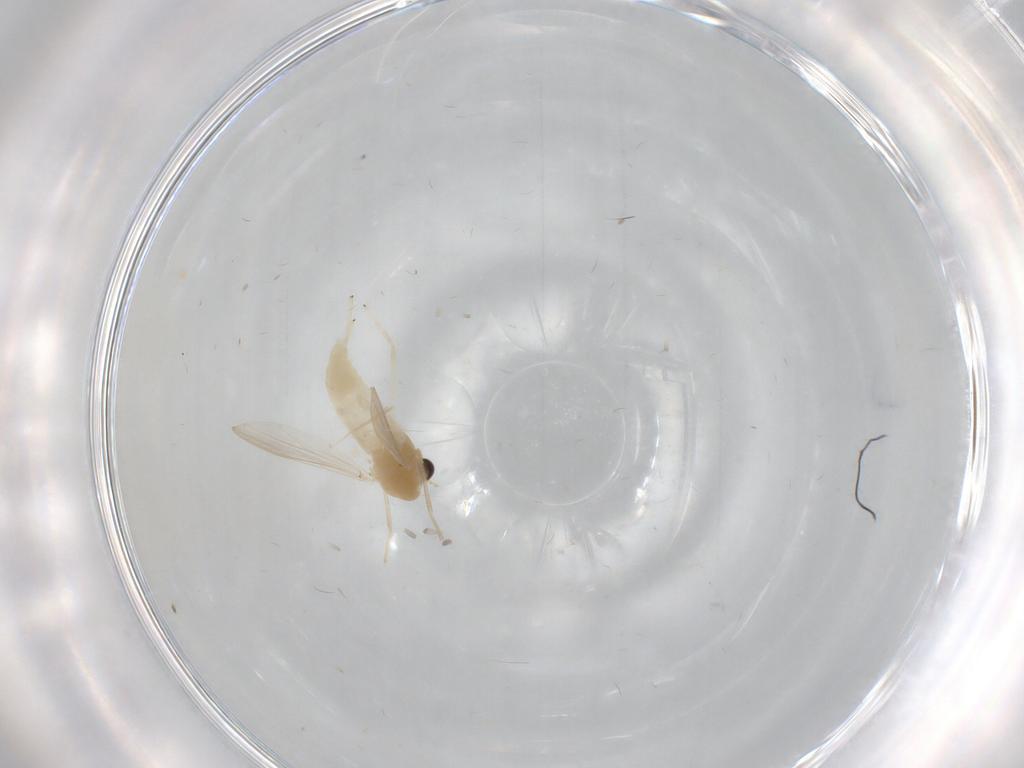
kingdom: Animalia
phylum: Arthropoda
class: Insecta
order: Diptera
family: Chironomidae
